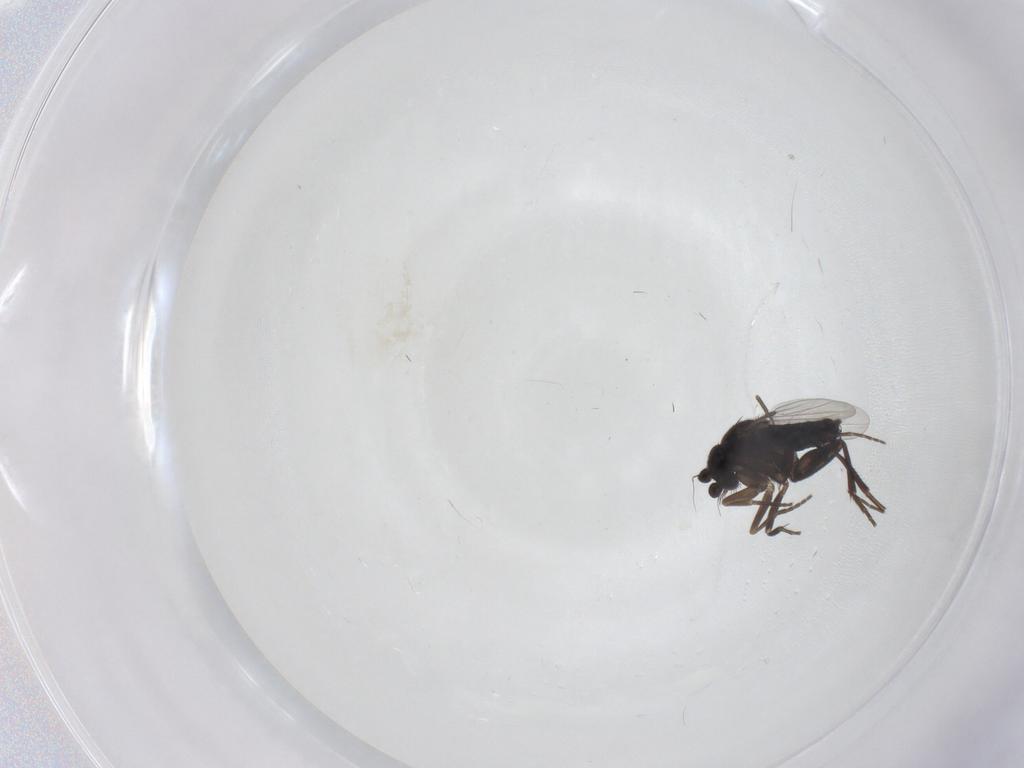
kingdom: Animalia
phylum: Arthropoda
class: Insecta
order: Diptera
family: Phoridae
